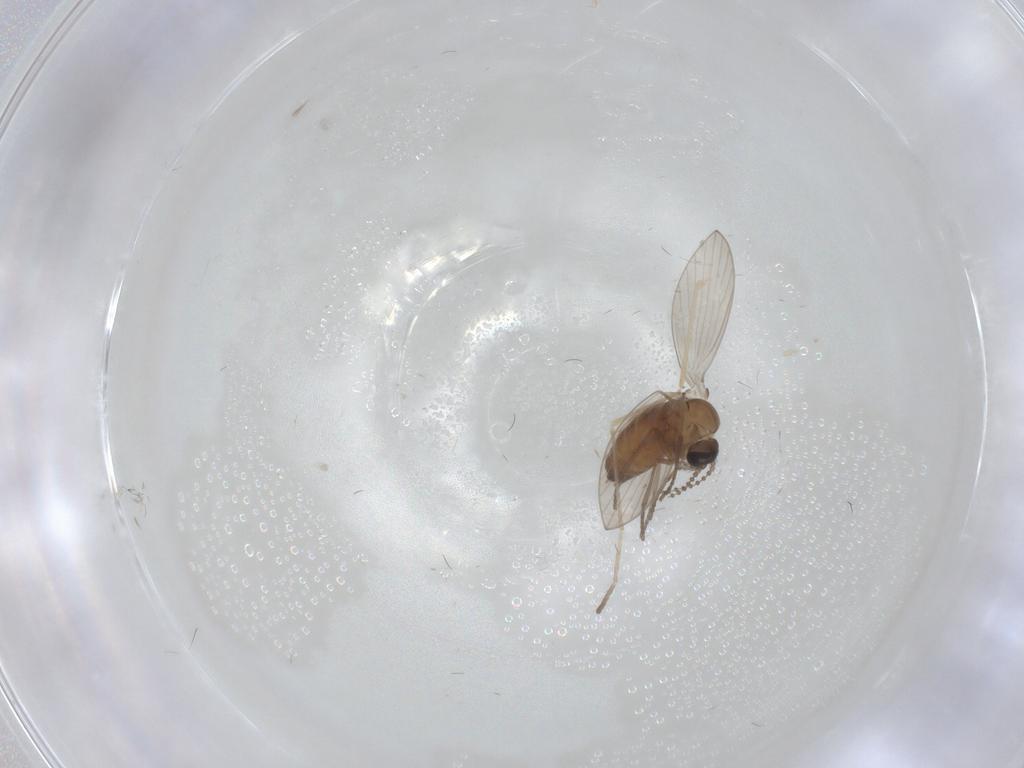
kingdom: Animalia
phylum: Arthropoda
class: Insecta
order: Diptera
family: Psychodidae
